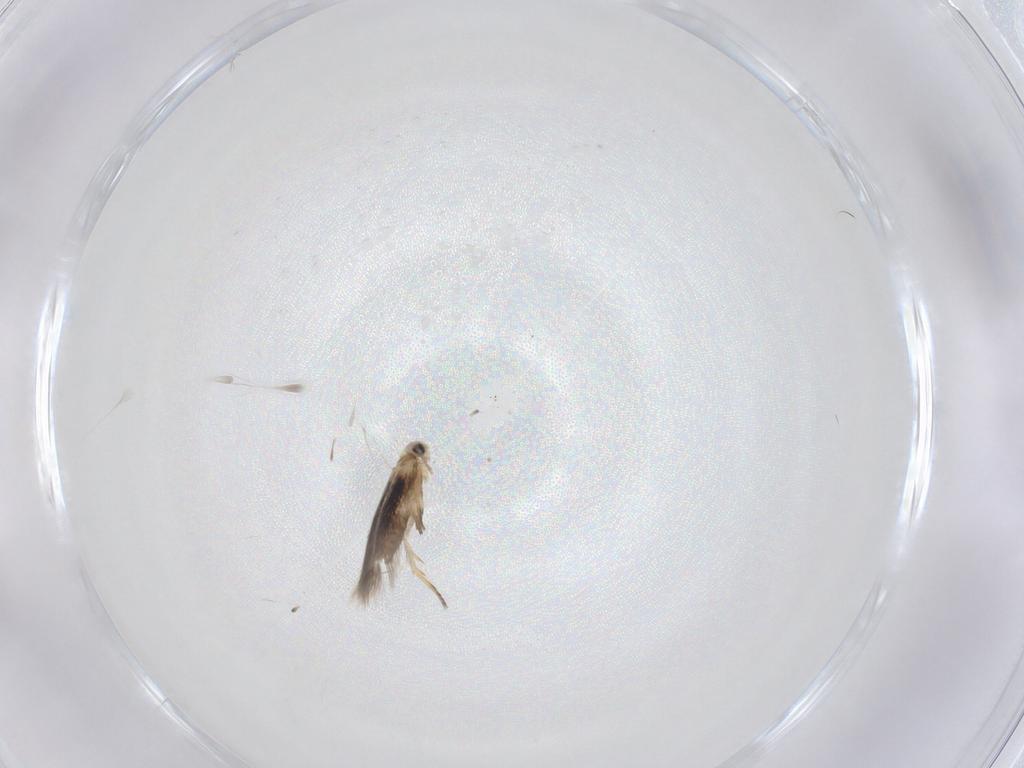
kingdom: Animalia
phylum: Arthropoda
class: Insecta
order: Lepidoptera
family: Nepticulidae
